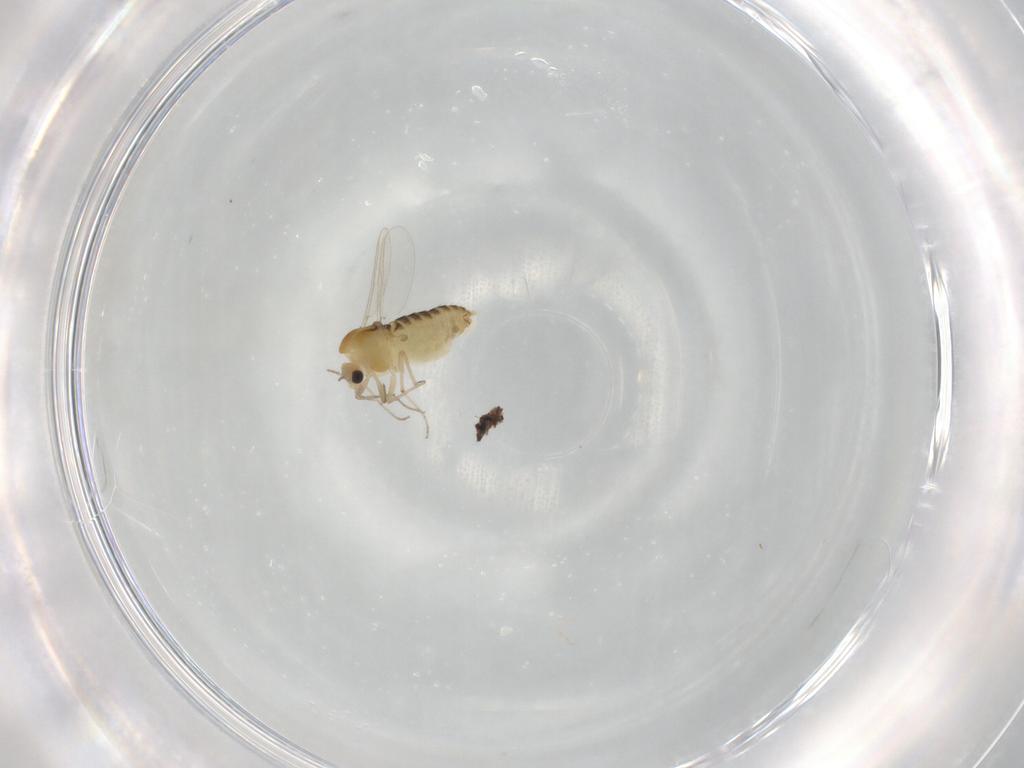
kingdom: Animalia
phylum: Arthropoda
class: Insecta
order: Diptera
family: Chironomidae
